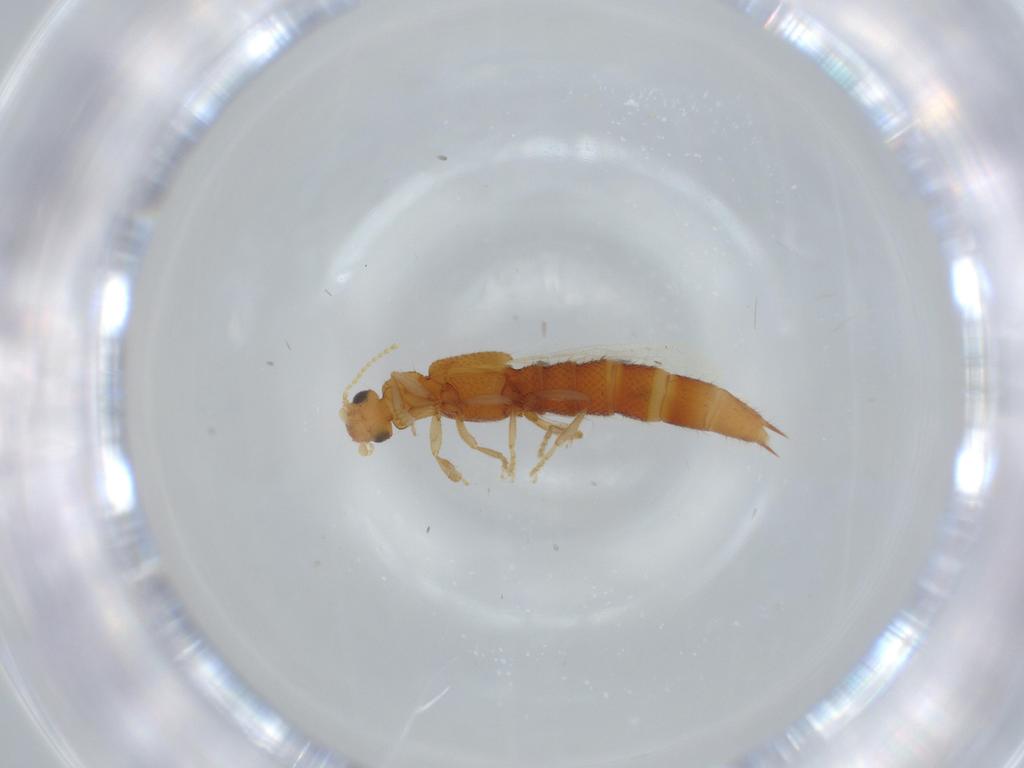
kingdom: Animalia
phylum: Arthropoda
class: Insecta
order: Coleoptera
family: Staphylinidae
